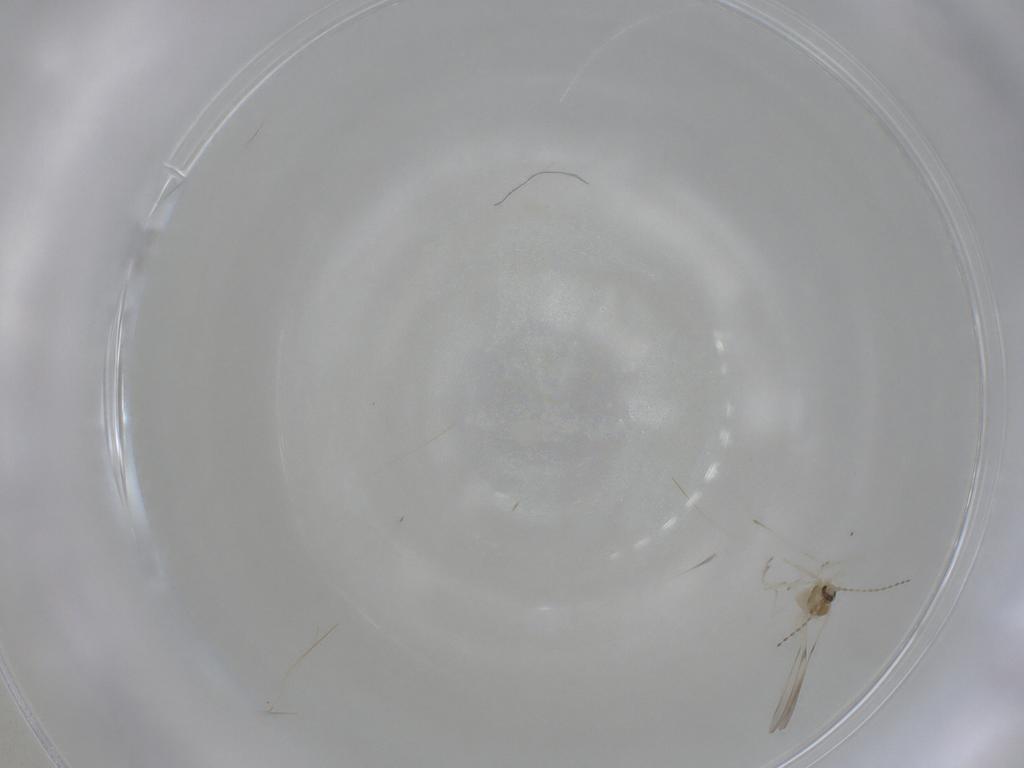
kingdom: Animalia
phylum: Arthropoda
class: Insecta
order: Diptera
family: Cecidomyiidae
